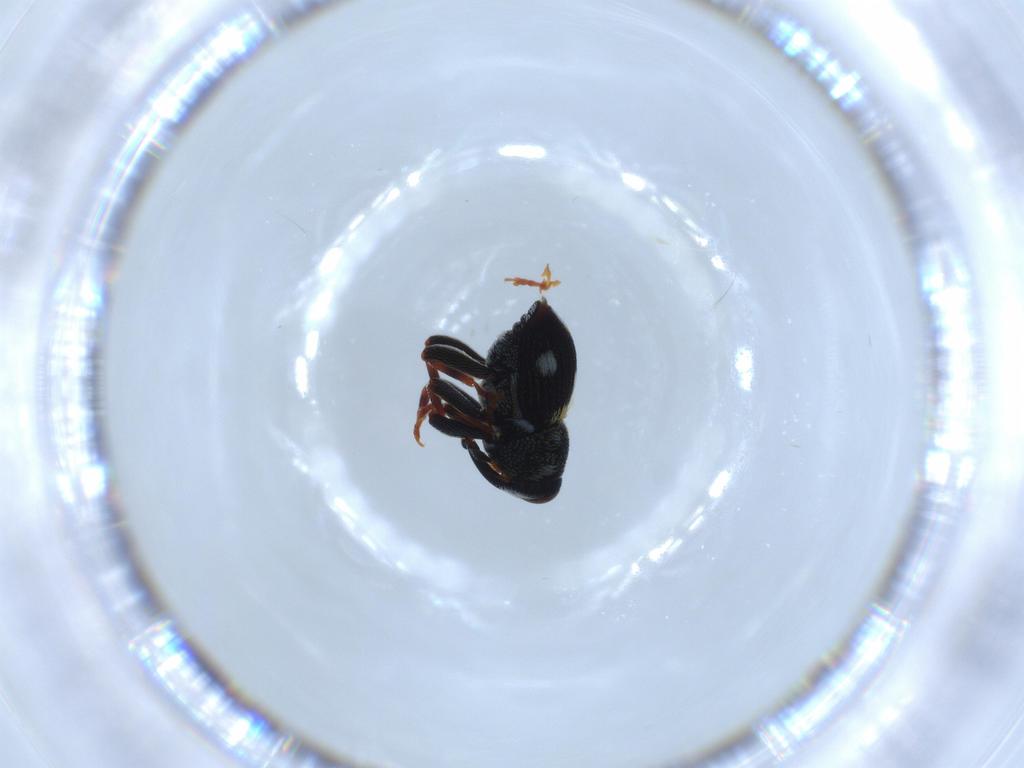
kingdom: Animalia
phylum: Arthropoda
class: Insecta
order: Coleoptera
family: Curculionidae
